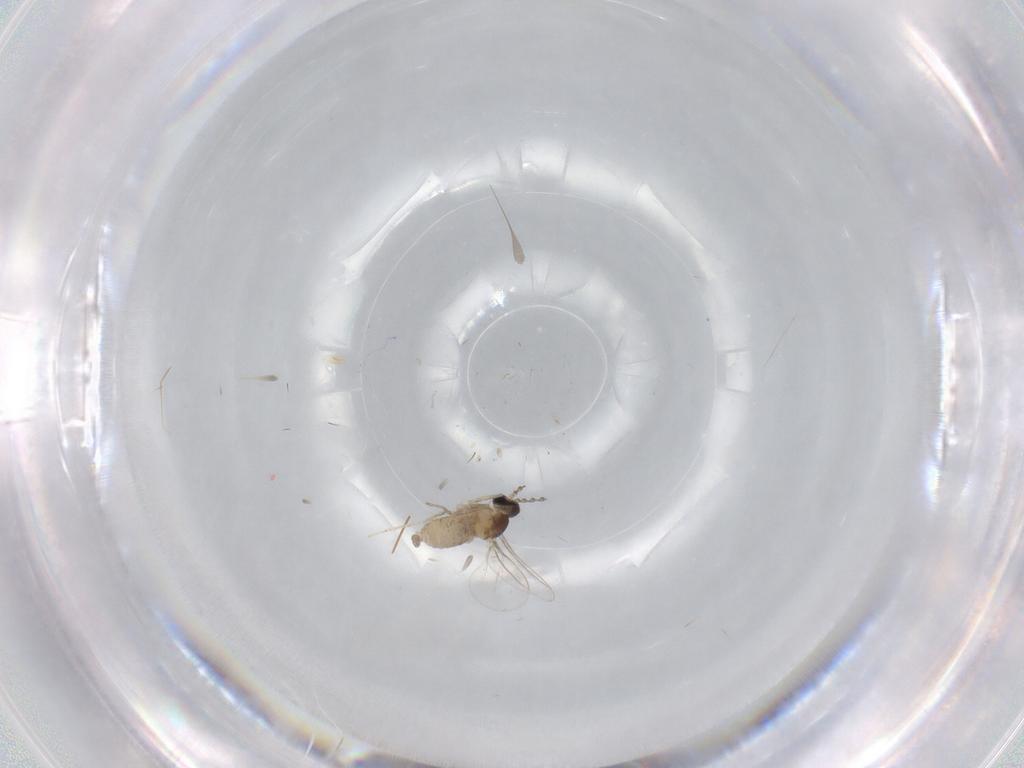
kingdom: Animalia
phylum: Arthropoda
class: Insecta
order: Diptera
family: Cecidomyiidae
